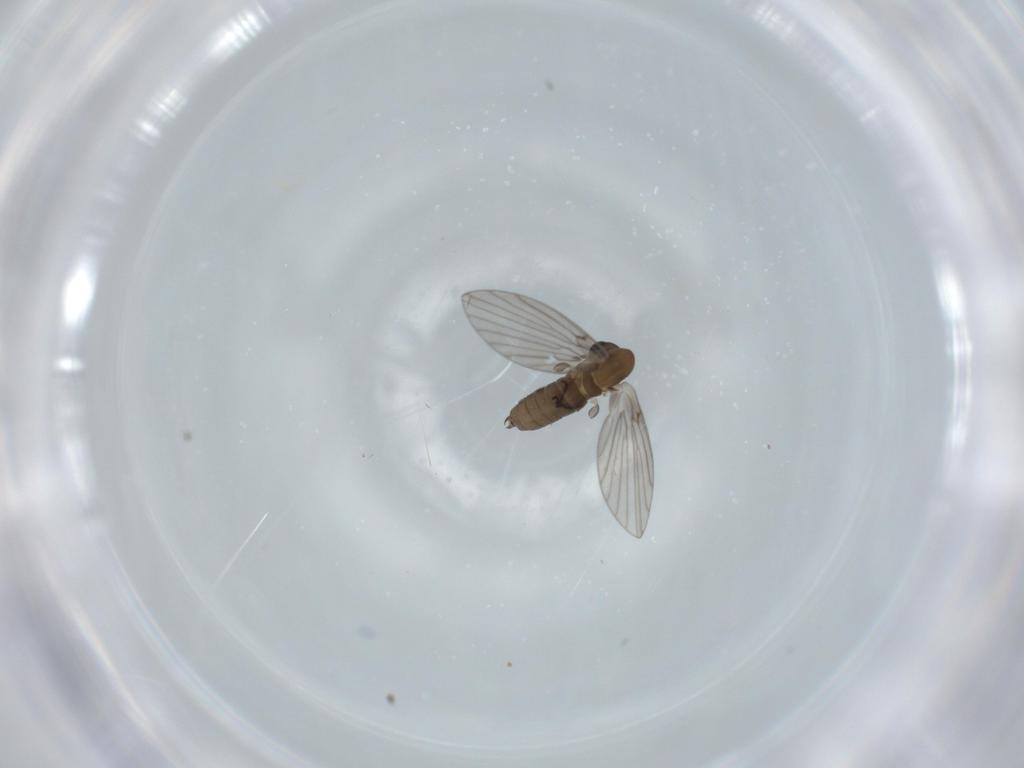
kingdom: Animalia
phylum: Arthropoda
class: Insecta
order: Diptera
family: Psychodidae
